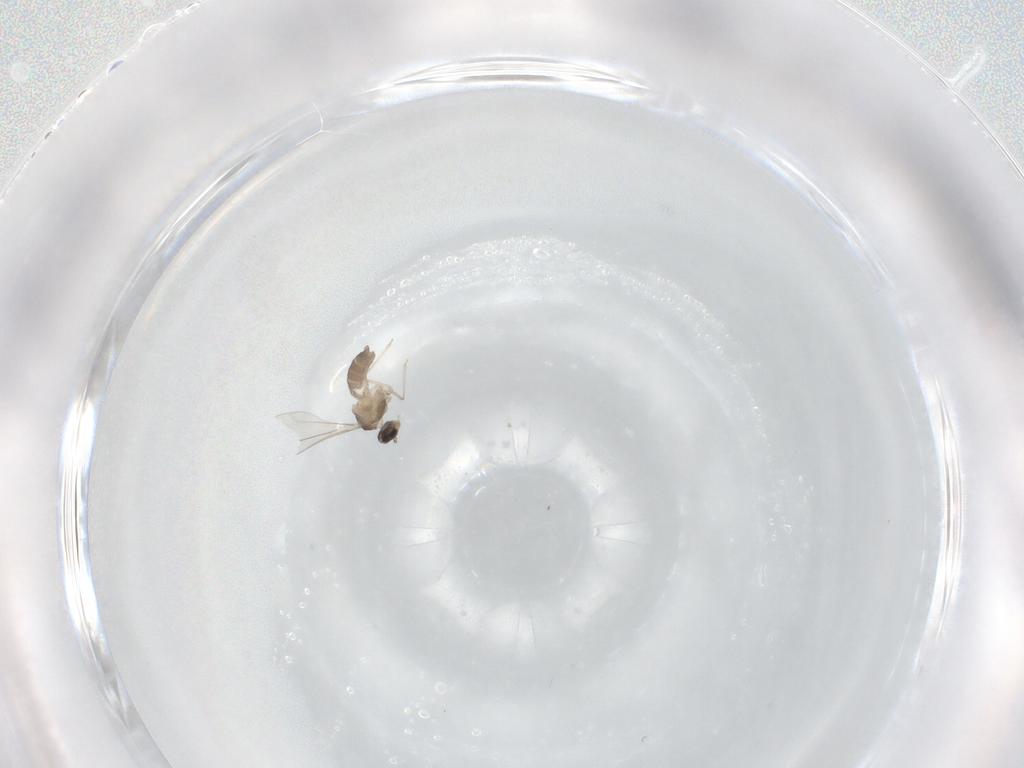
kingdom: Animalia
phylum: Arthropoda
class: Insecta
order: Diptera
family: Cecidomyiidae
